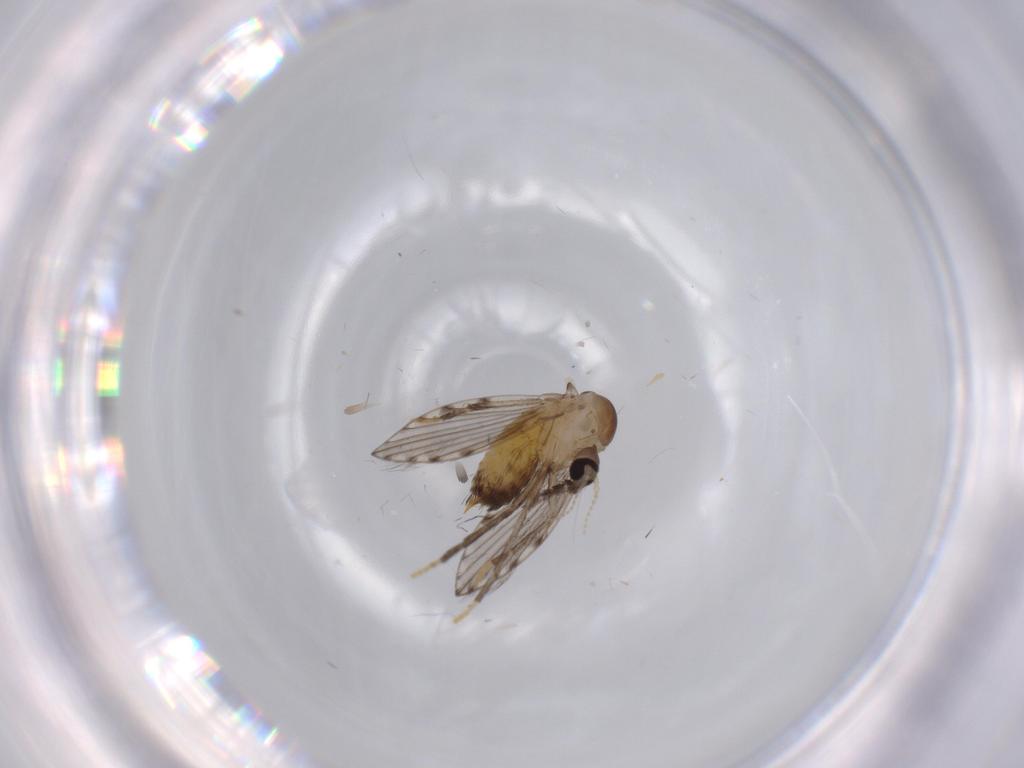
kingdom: Animalia
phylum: Arthropoda
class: Insecta
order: Diptera
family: Psychodidae
